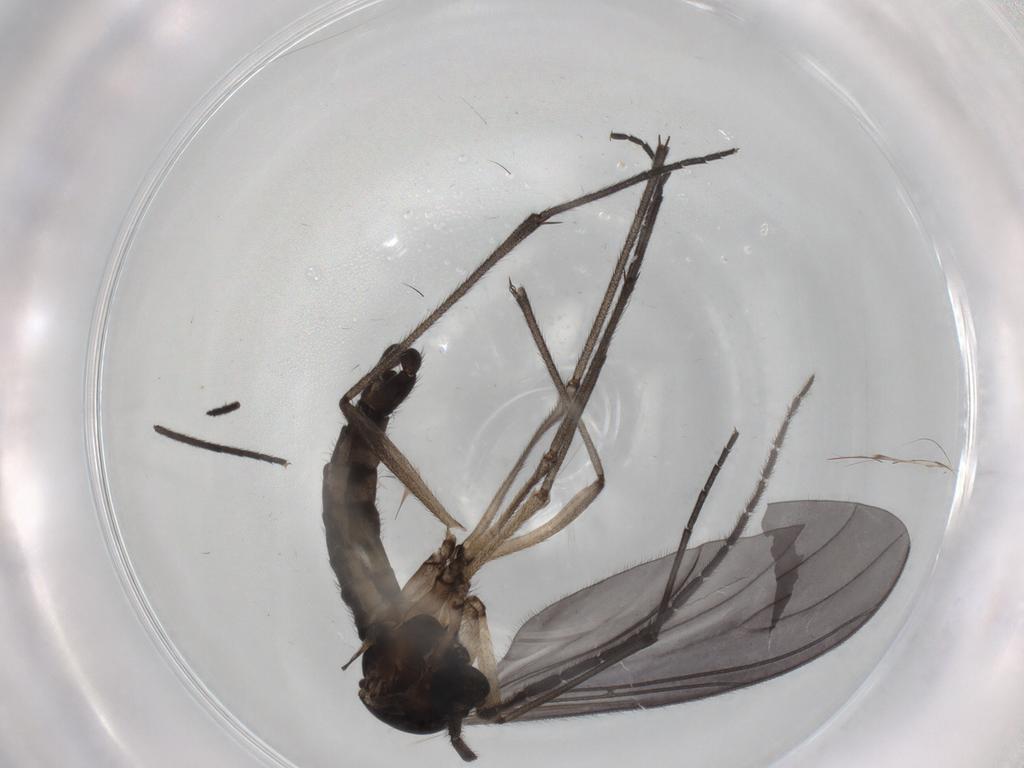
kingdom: Animalia
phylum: Arthropoda
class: Insecta
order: Diptera
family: Sciaridae
